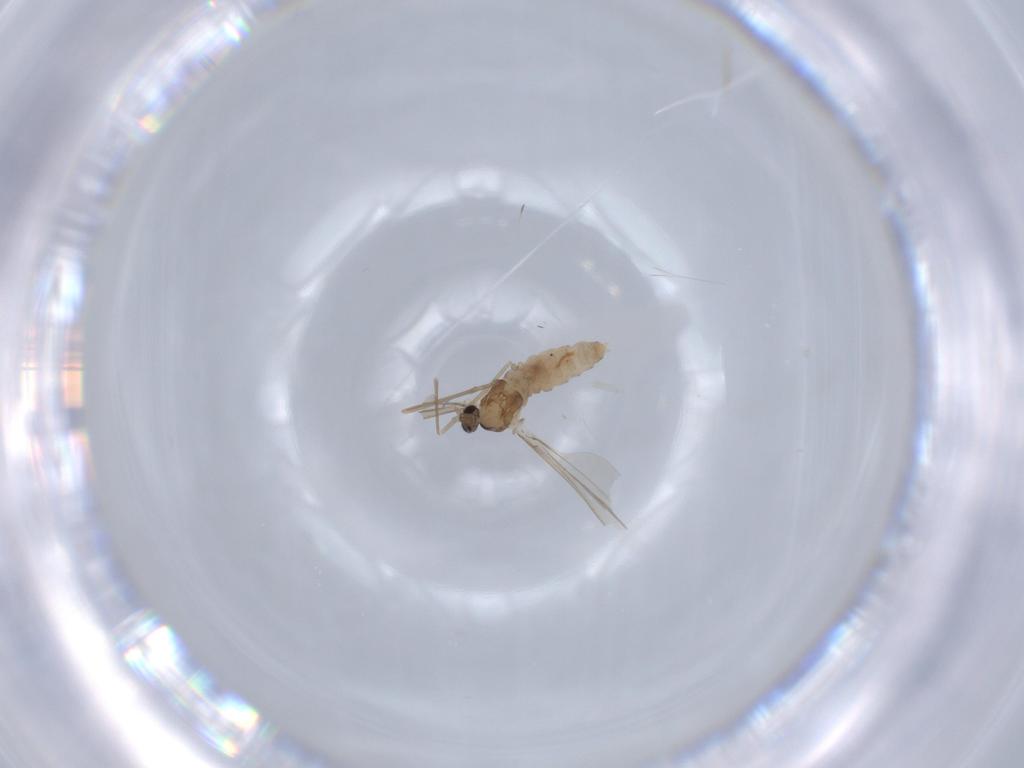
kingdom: Animalia
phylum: Arthropoda
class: Insecta
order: Diptera
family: Cecidomyiidae
